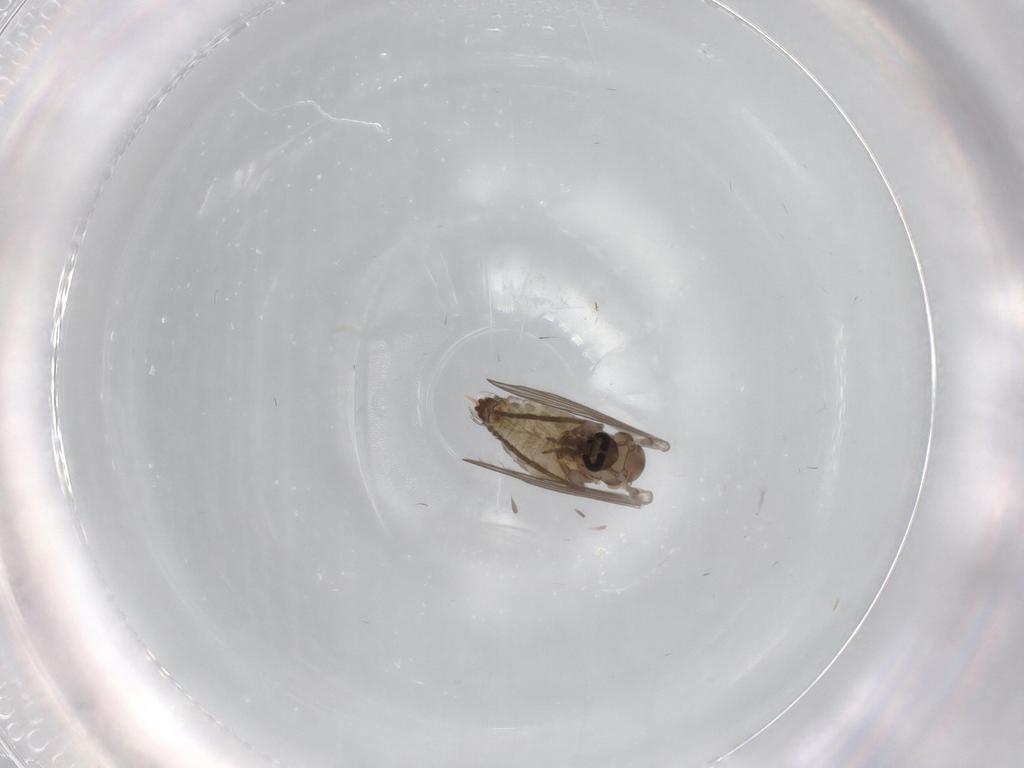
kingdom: Animalia
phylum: Arthropoda
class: Insecta
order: Diptera
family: Psychodidae
